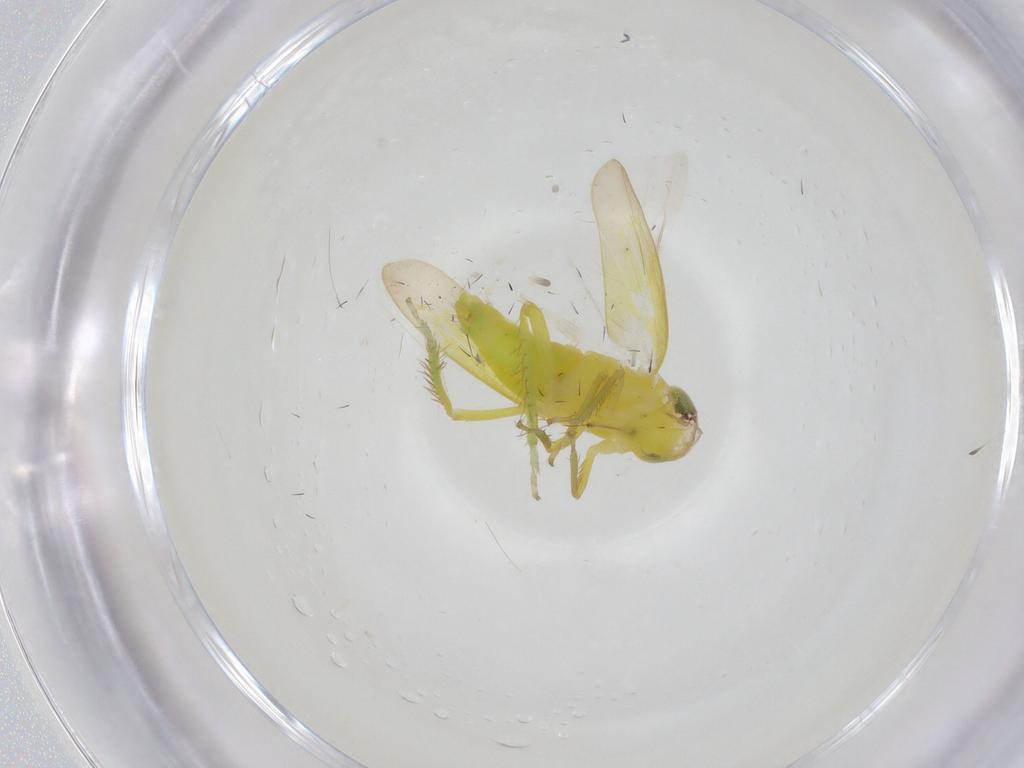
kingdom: Animalia
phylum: Arthropoda
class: Insecta
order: Hemiptera
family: Cicadellidae
